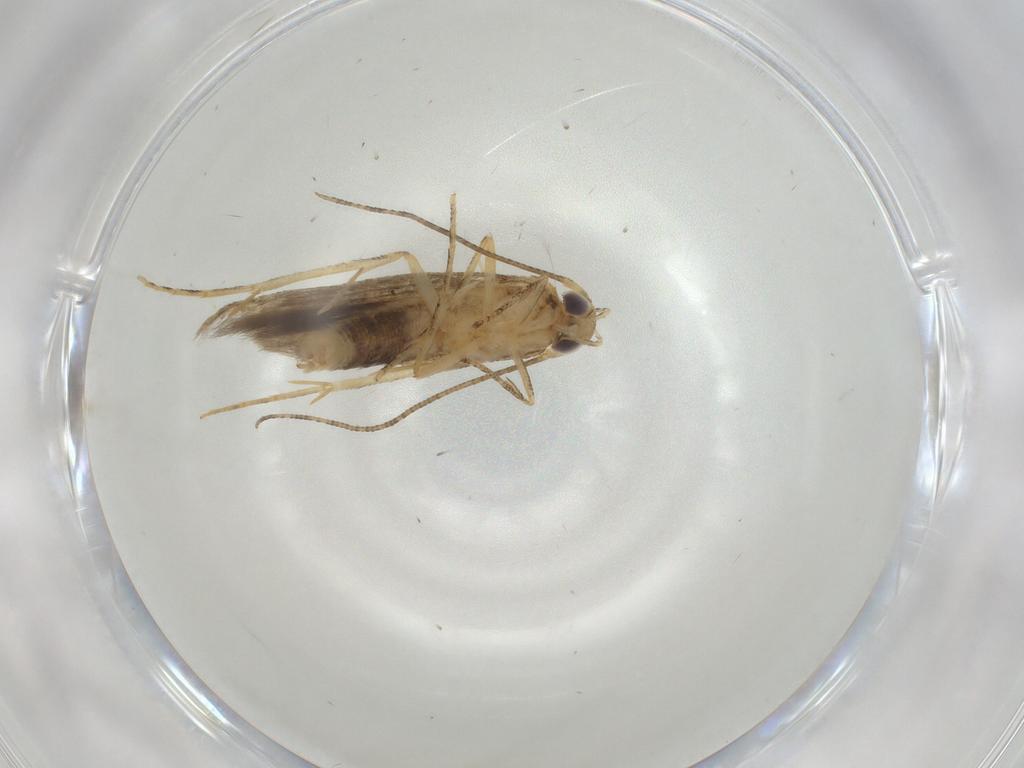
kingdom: Animalia
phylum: Arthropoda
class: Insecta
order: Lepidoptera
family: Elachistidae
